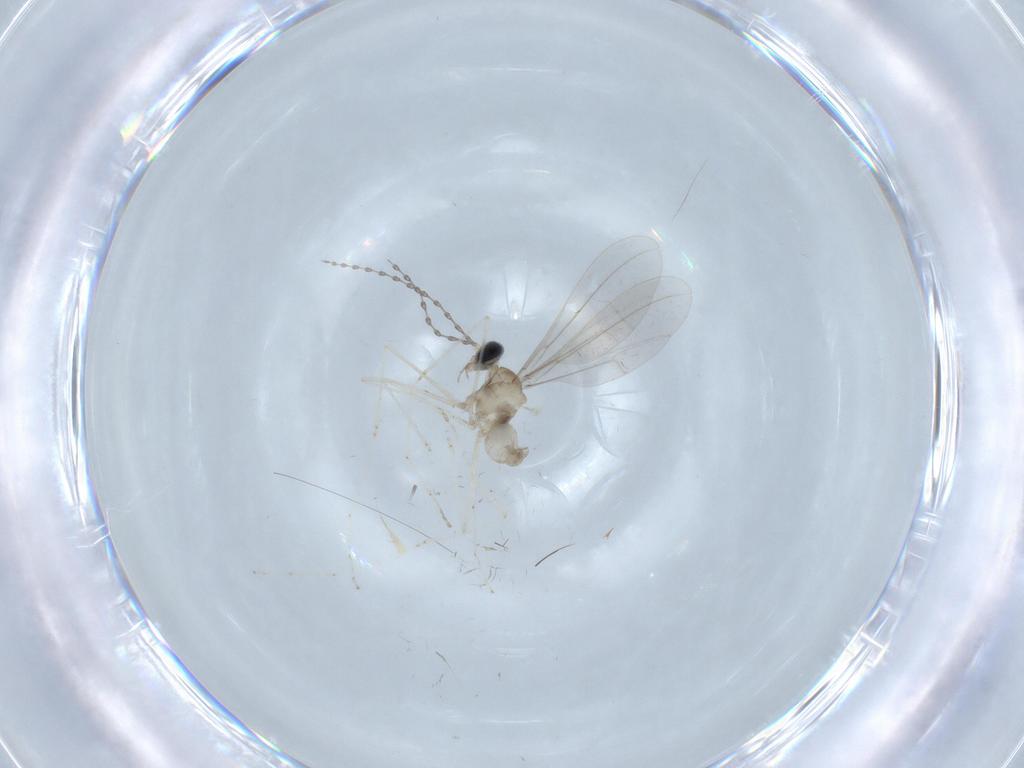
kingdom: Animalia
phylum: Arthropoda
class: Insecta
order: Diptera
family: Cecidomyiidae
